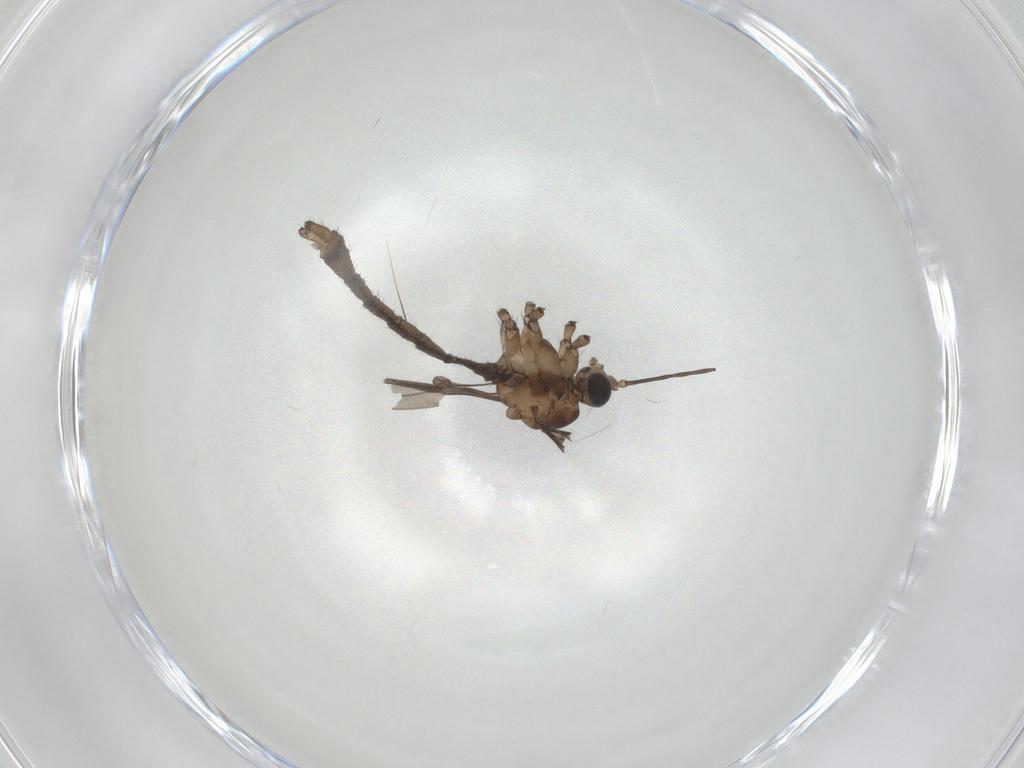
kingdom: Animalia
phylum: Arthropoda
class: Insecta
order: Diptera
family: Limoniidae
